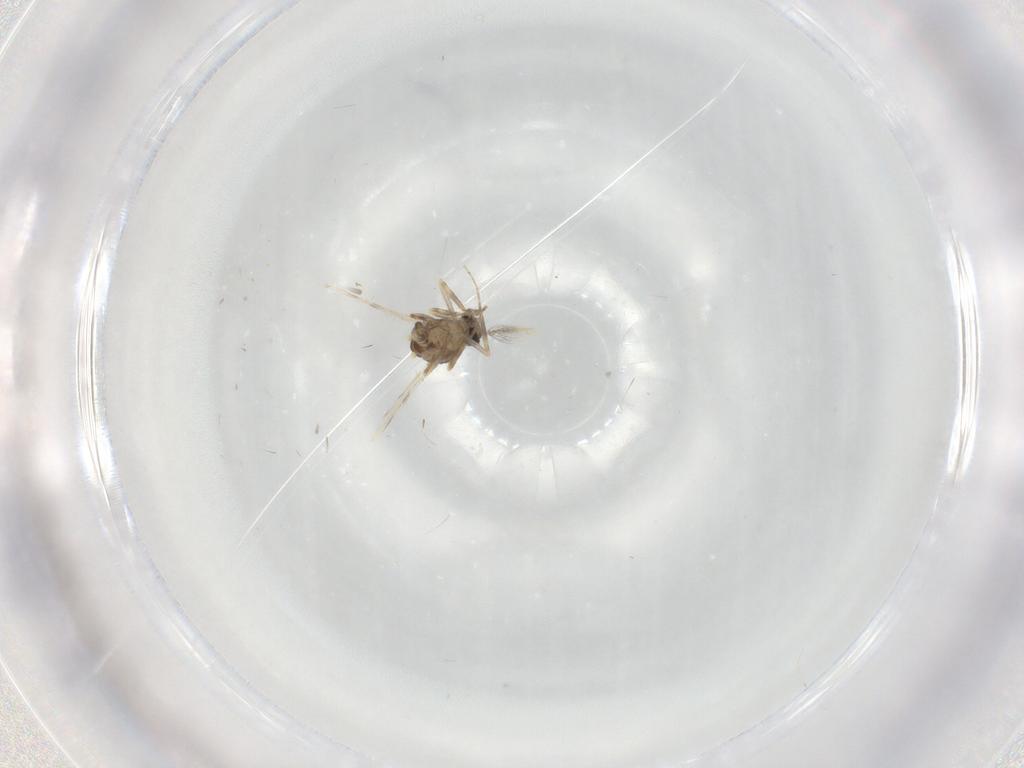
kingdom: Animalia
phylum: Arthropoda
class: Insecta
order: Diptera
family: Ceratopogonidae
